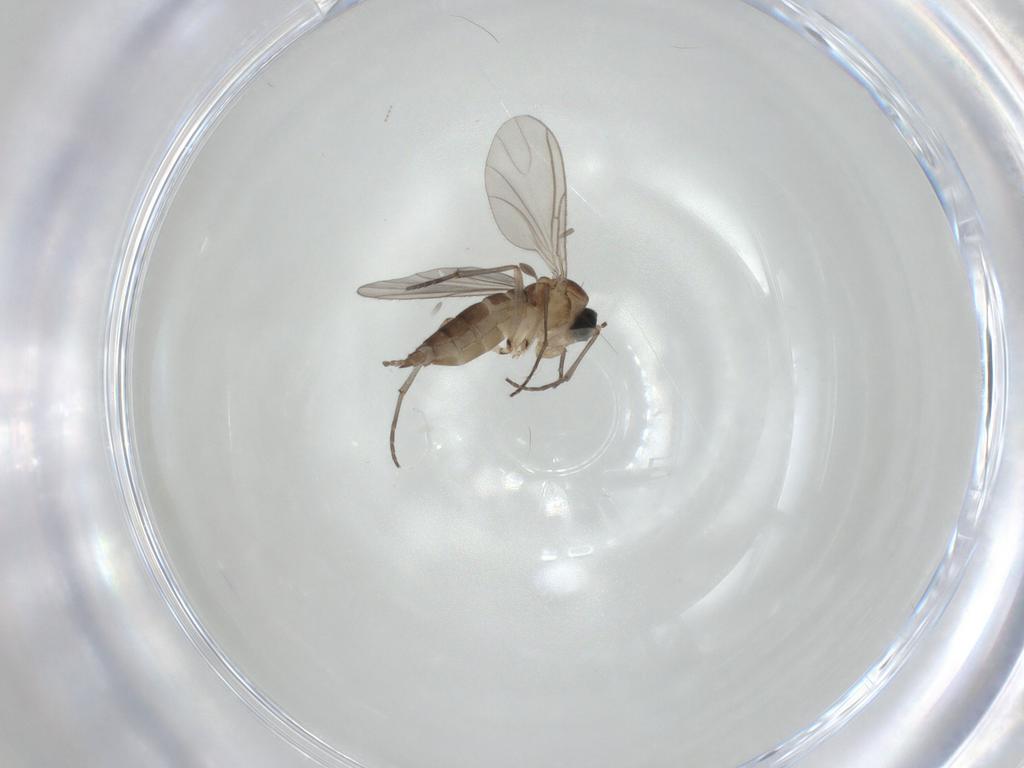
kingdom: Animalia
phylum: Arthropoda
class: Insecta
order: Diptera
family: Sciaridae
